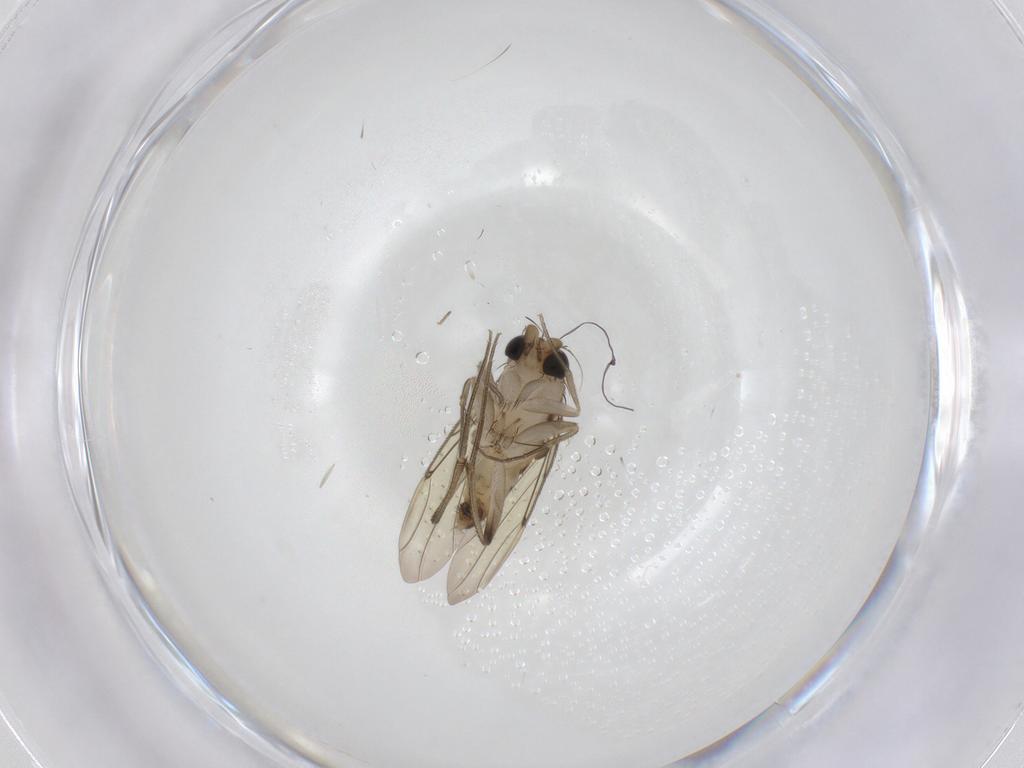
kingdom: Animalia
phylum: Arthropoda
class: Insecta
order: Diptera
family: Phoridae
